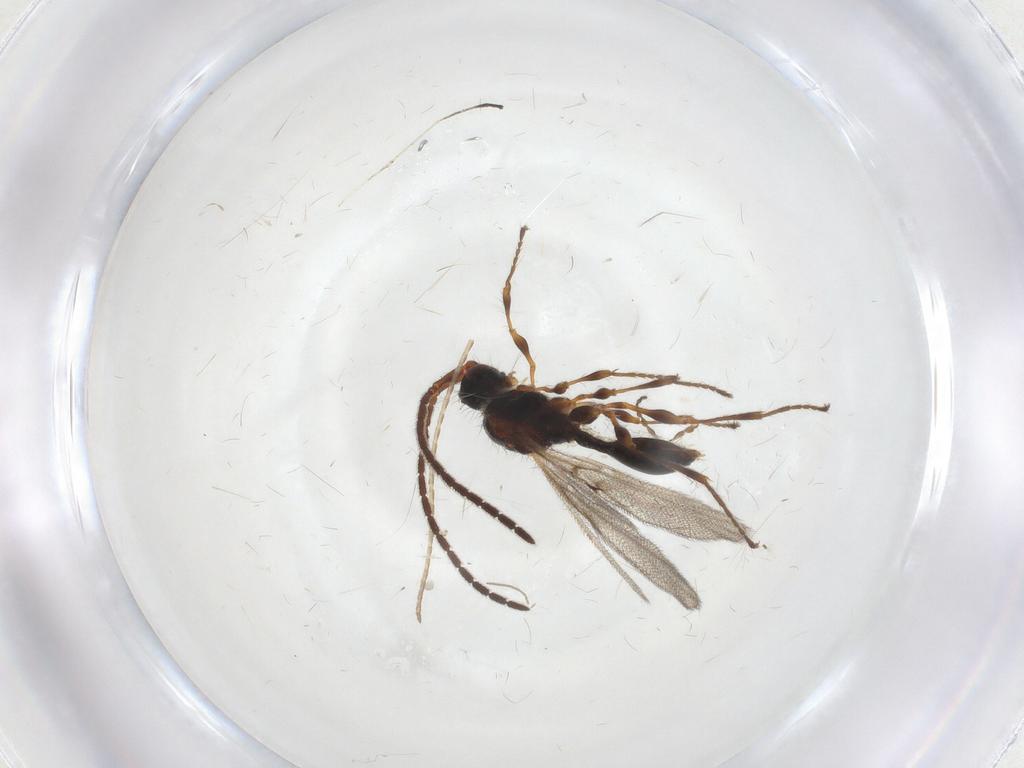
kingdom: Animalia
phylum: Arthropoda
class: Insecta
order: Hymenoptera
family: Diapriidae
